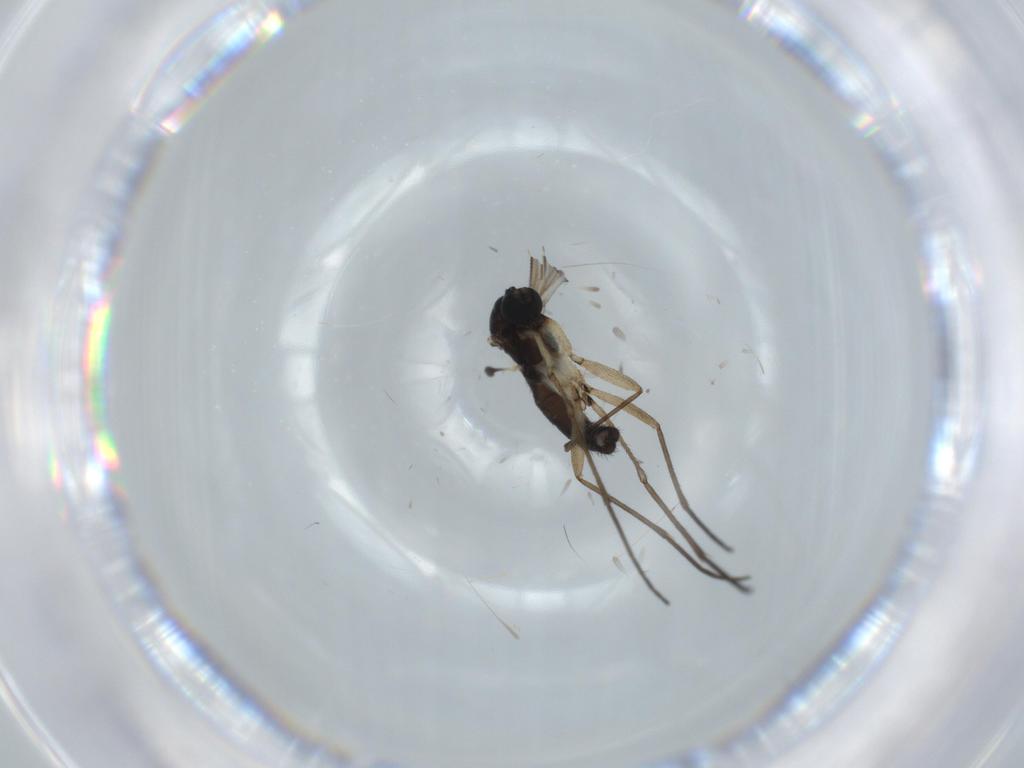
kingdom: Animalia
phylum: Arthropoda
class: Insecta
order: Diptera
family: Sciaridae
